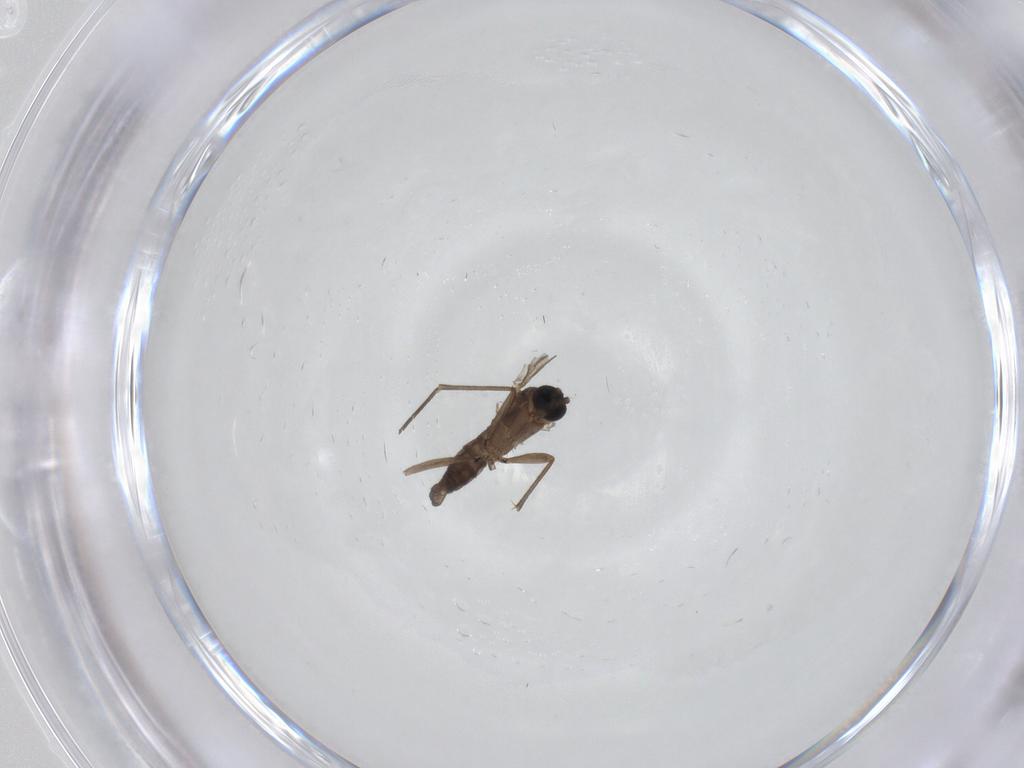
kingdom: Animalia
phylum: Arthropoda
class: Insecta
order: Diptera
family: Sciaridae
